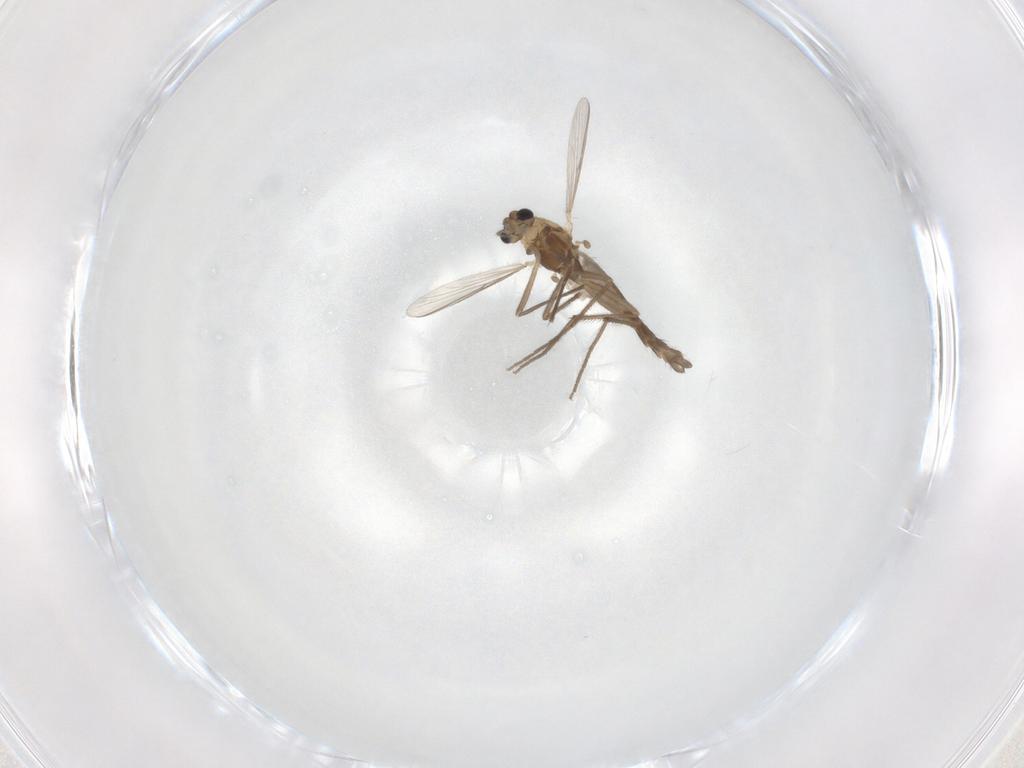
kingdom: Animalia
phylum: Arthropoda
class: Insecta
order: Diptera
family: Chironomidae
